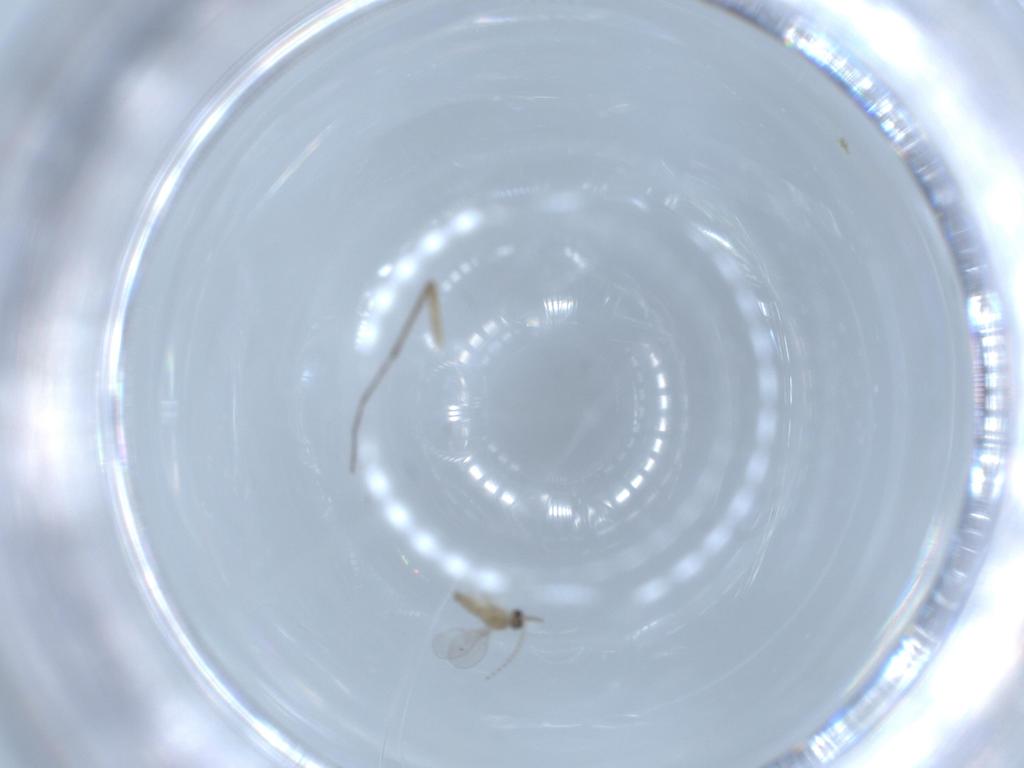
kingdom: Animalia
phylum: Arthropoda
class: Insecta
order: Diptera
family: Chironomidae
